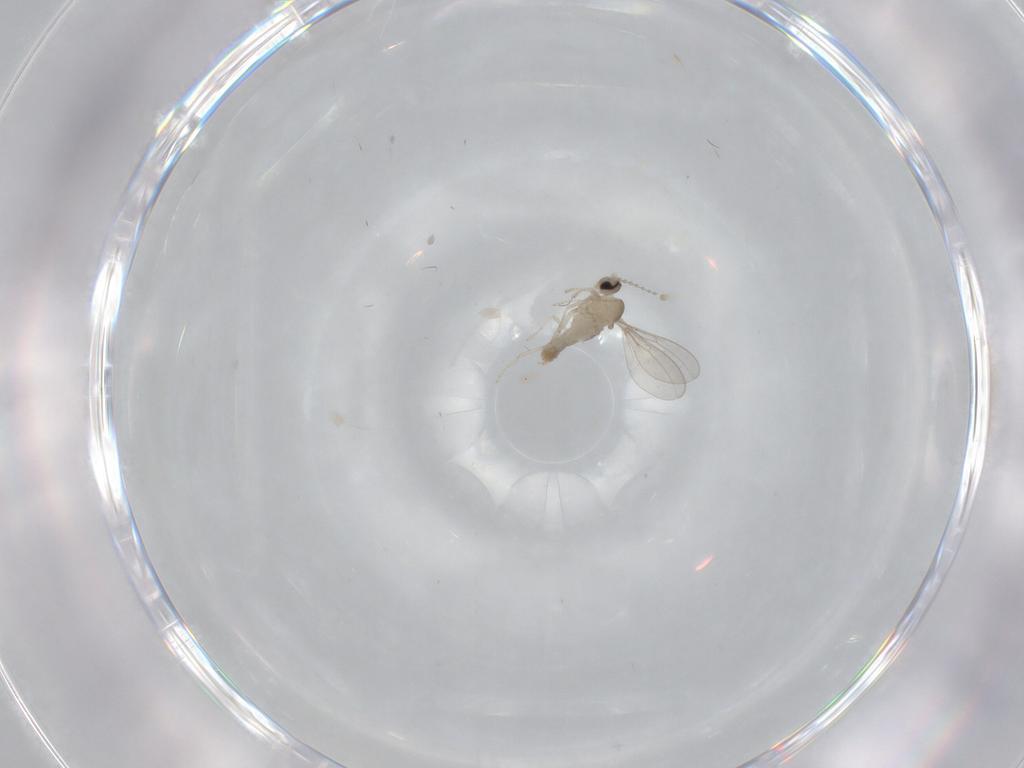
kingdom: Animalia
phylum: Arthropoda
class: Insecta
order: Diptera
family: Cecidomyiidae
